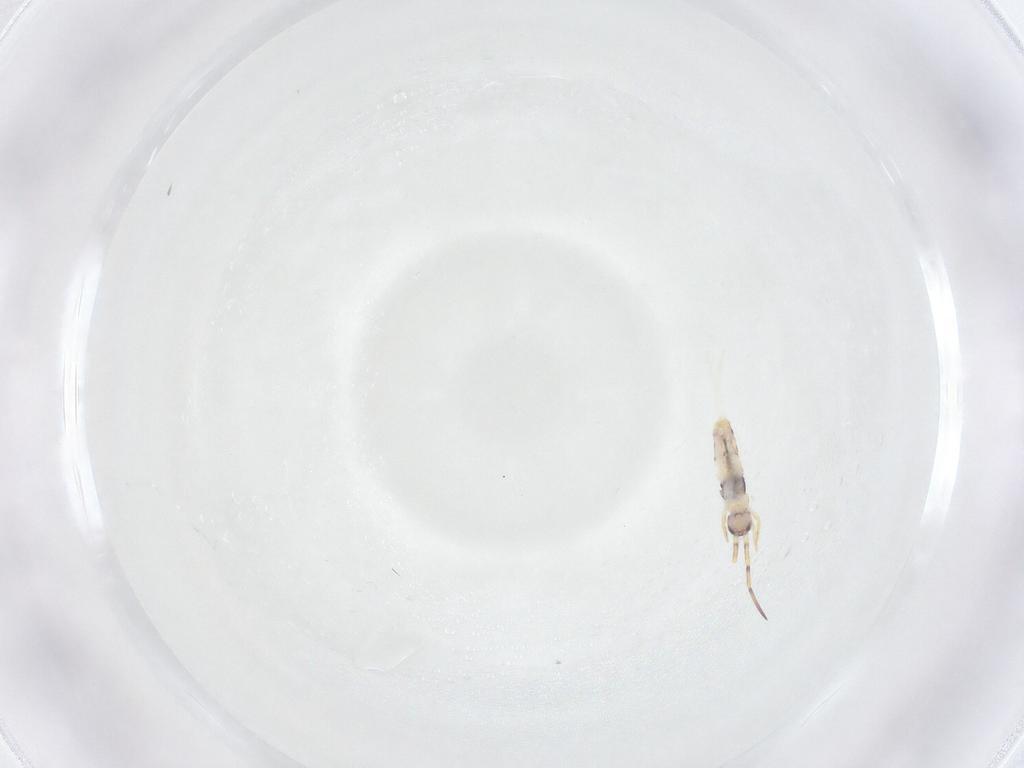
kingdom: Animalia
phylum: Arthropoda
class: Collembola
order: Entomobryomorpha
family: Entomobryidae
